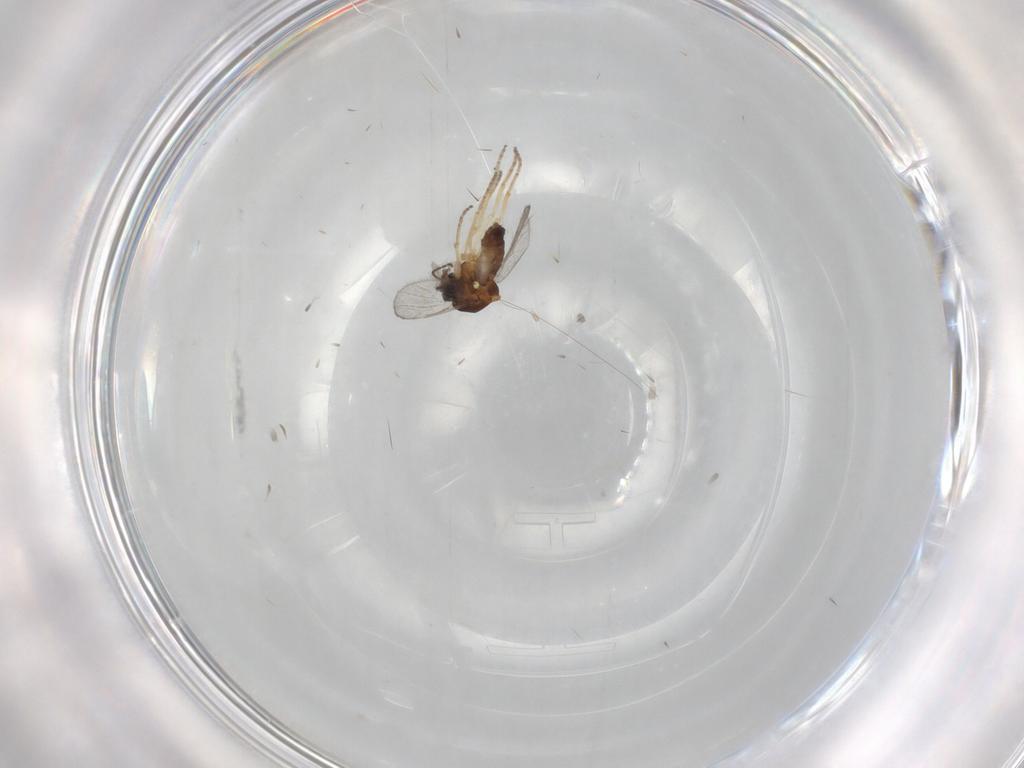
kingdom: Animalia
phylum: Arthropoda
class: Insecta
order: Diptera
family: Ceratopogonidae
